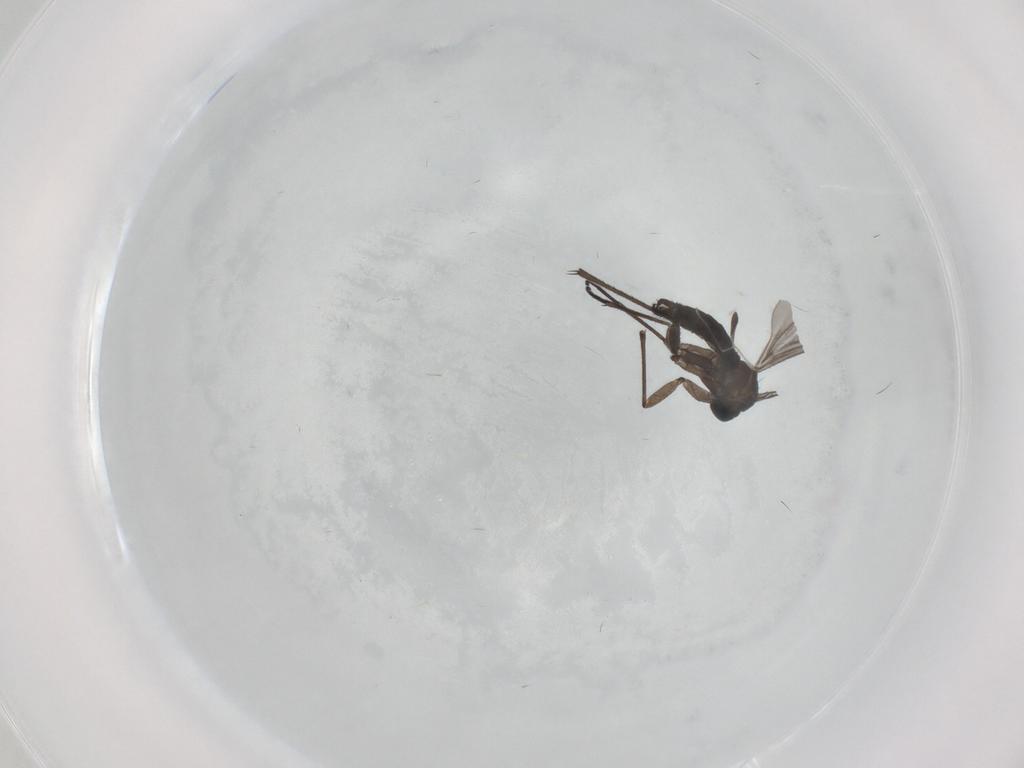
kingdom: Animalia
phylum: Arthropoda
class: Insecta
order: Diptera
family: Sciaridae
